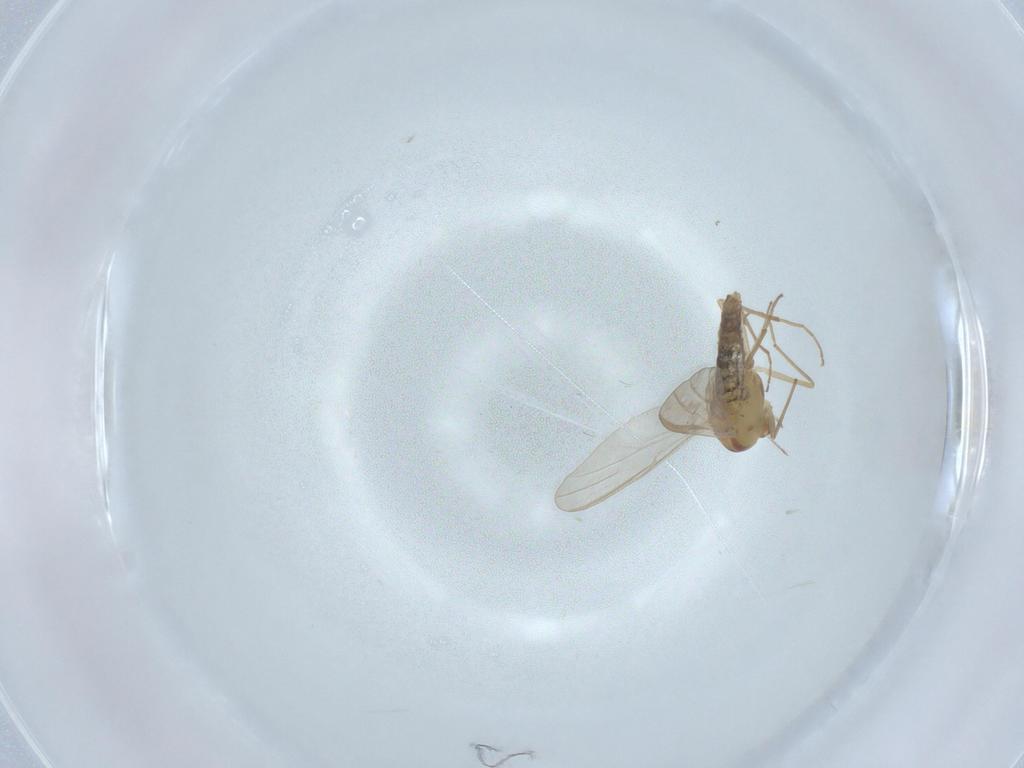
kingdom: Animalia
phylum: Arthropoda
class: Insecta
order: Diptera
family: Chironomidae
